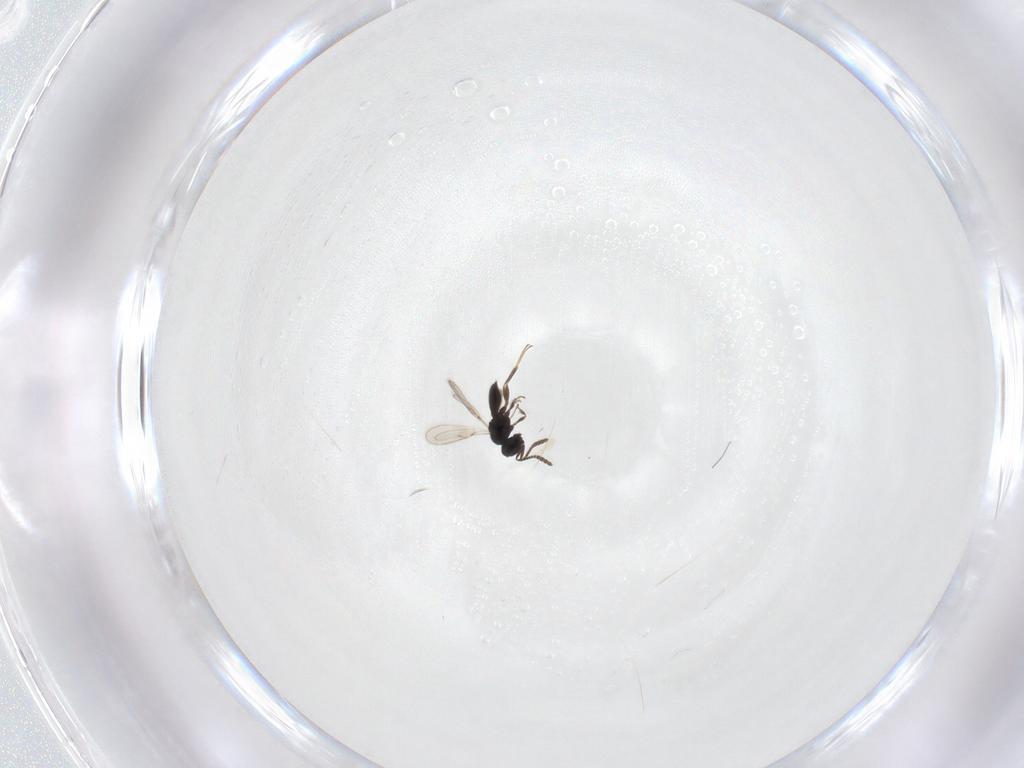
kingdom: Animalia
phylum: Arthropoda
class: Insecta
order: Hymenoptera
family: Scelionidae
